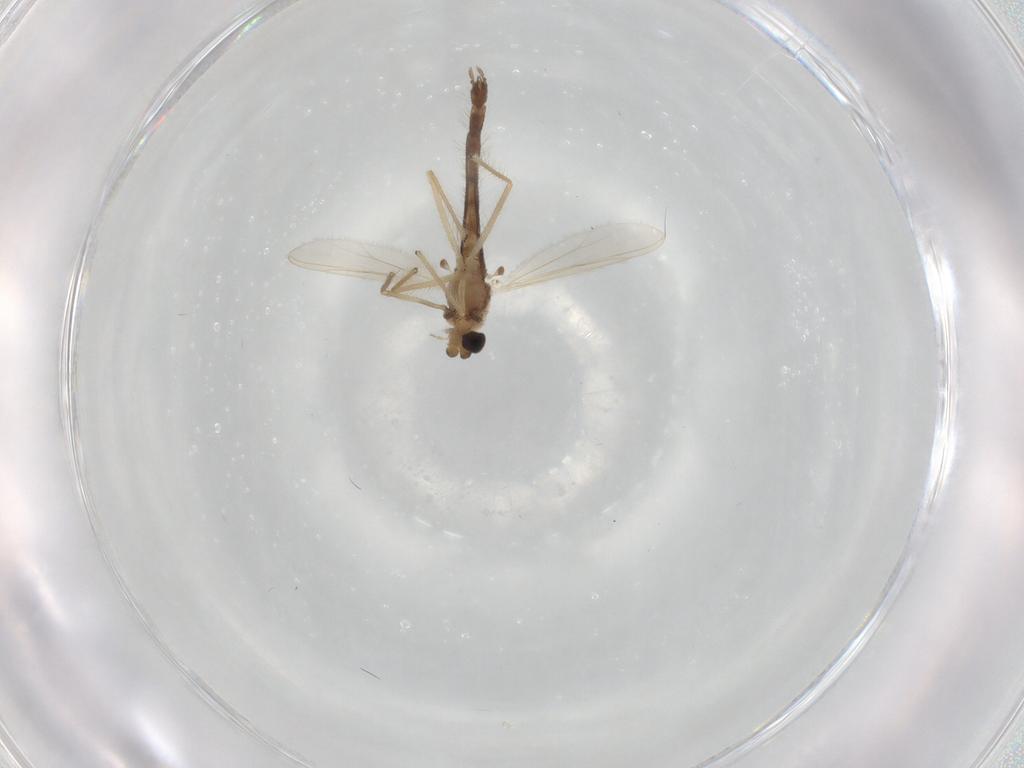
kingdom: Animalia
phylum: Arthropoda
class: Insecta
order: Diptera
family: Chironomidae
